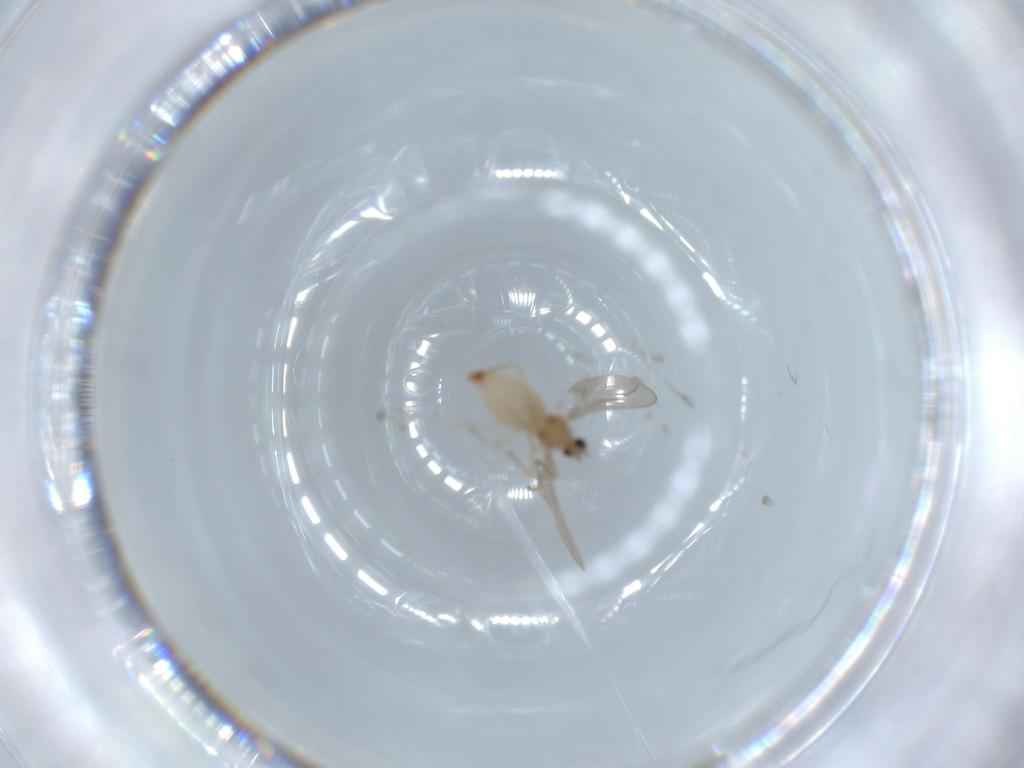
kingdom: Animalia
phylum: Arthropoda
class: Insecta
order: Diptera
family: Cecidomyiidae
